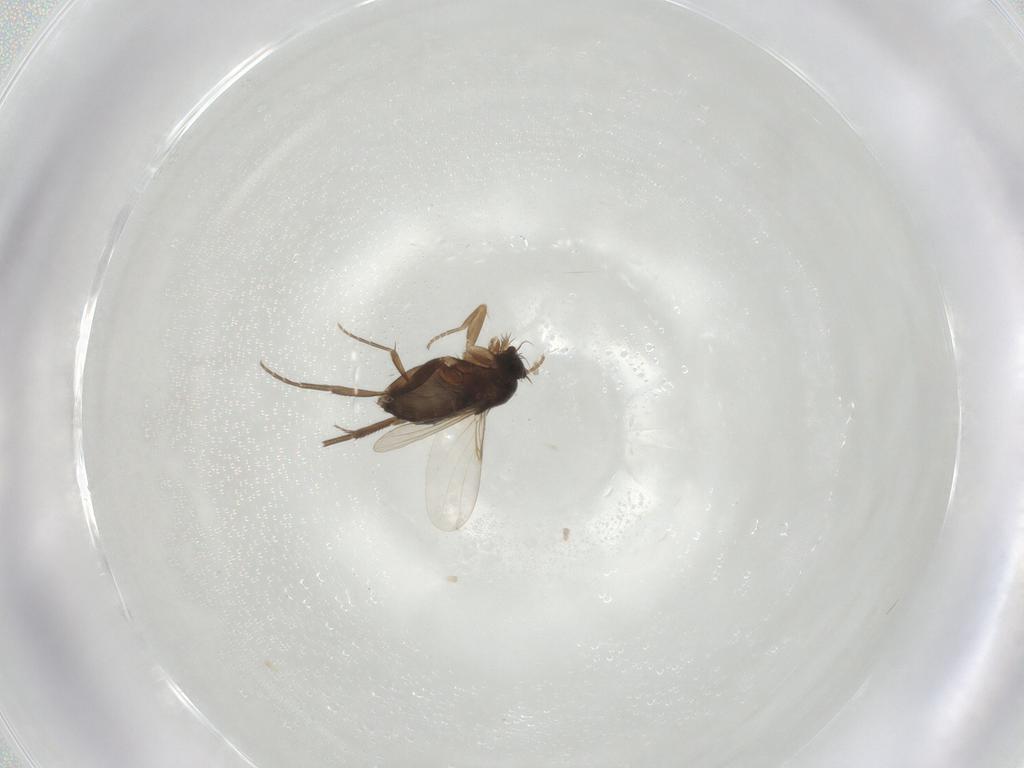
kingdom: Animalia
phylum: Arthropoda
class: Insecta
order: Diptera
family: Phoridae
